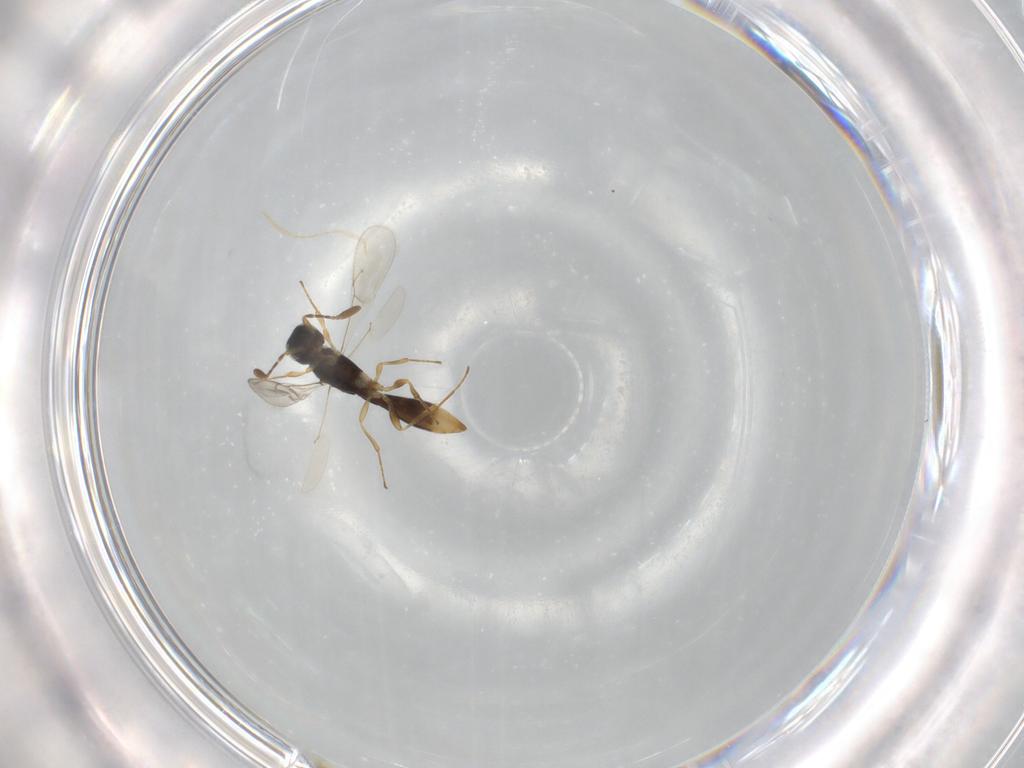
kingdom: Animalia
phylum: Arthropoda
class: Insecta
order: Hymenoptera
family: Scelionidae
